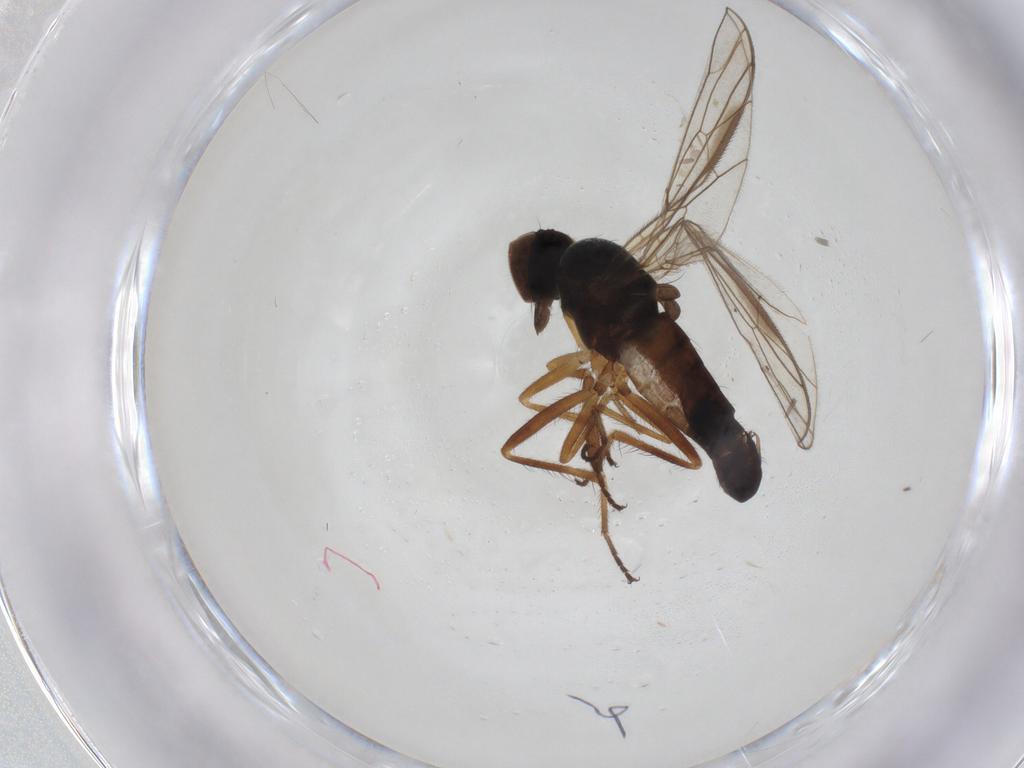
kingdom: Animalia
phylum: Arthropoda
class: Insecta
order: Diptera
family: Empididae
